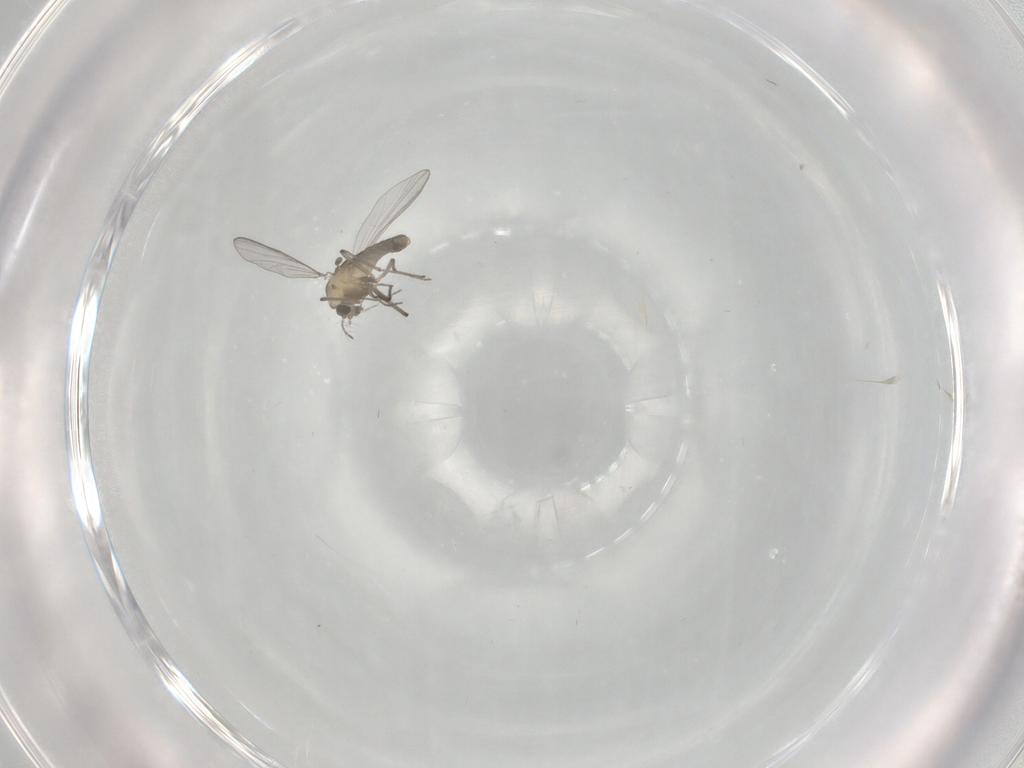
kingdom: Animalia
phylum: Arthropoda
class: Insecta
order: Diptera
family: Chironomidae
